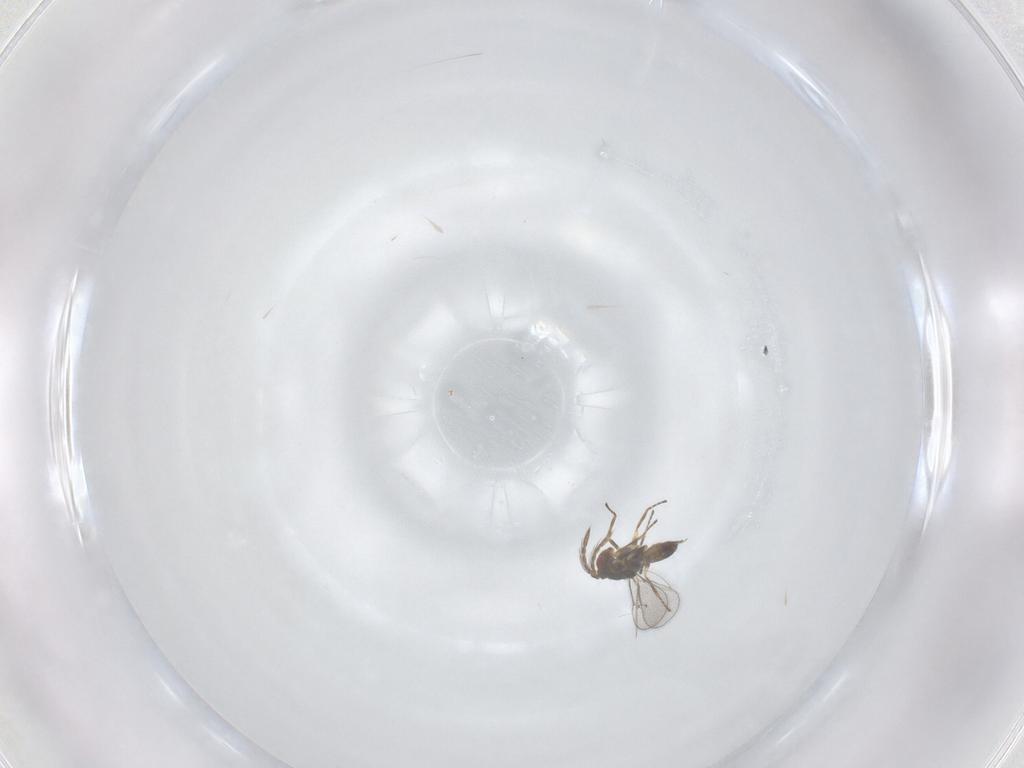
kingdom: Animalia
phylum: Arthropoda
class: Insecta
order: Hymenoptera
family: Eulophidae
